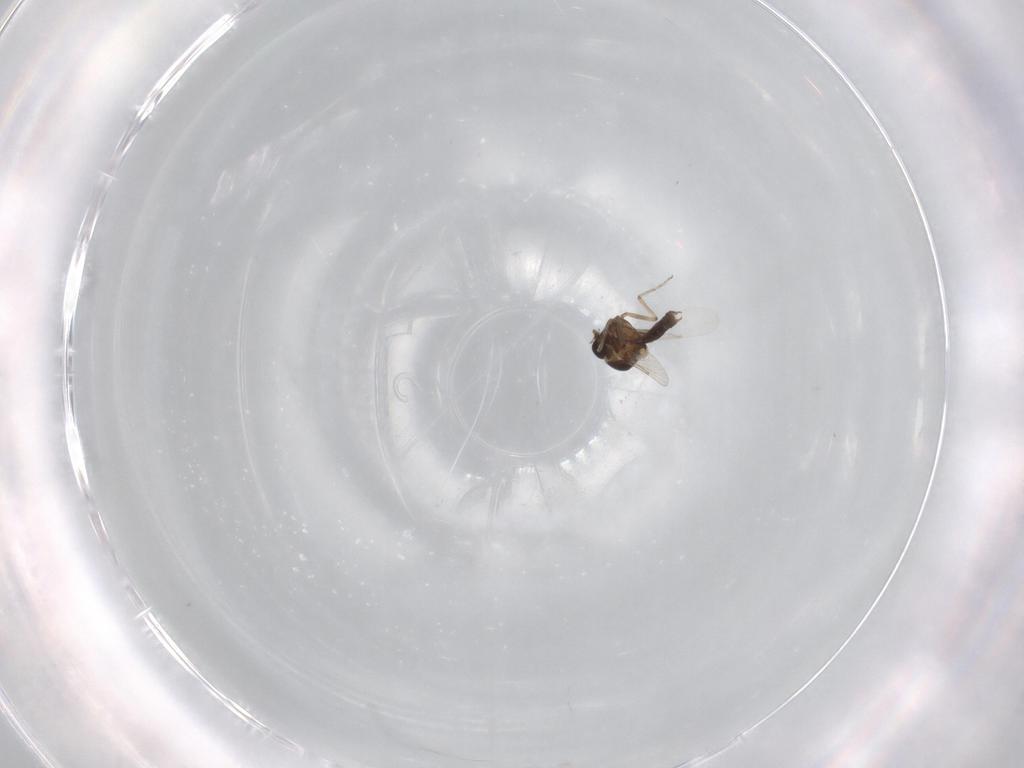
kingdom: Animalia
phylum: Arthropoda
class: Insecta
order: Diptera
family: Ceratopogonidae
